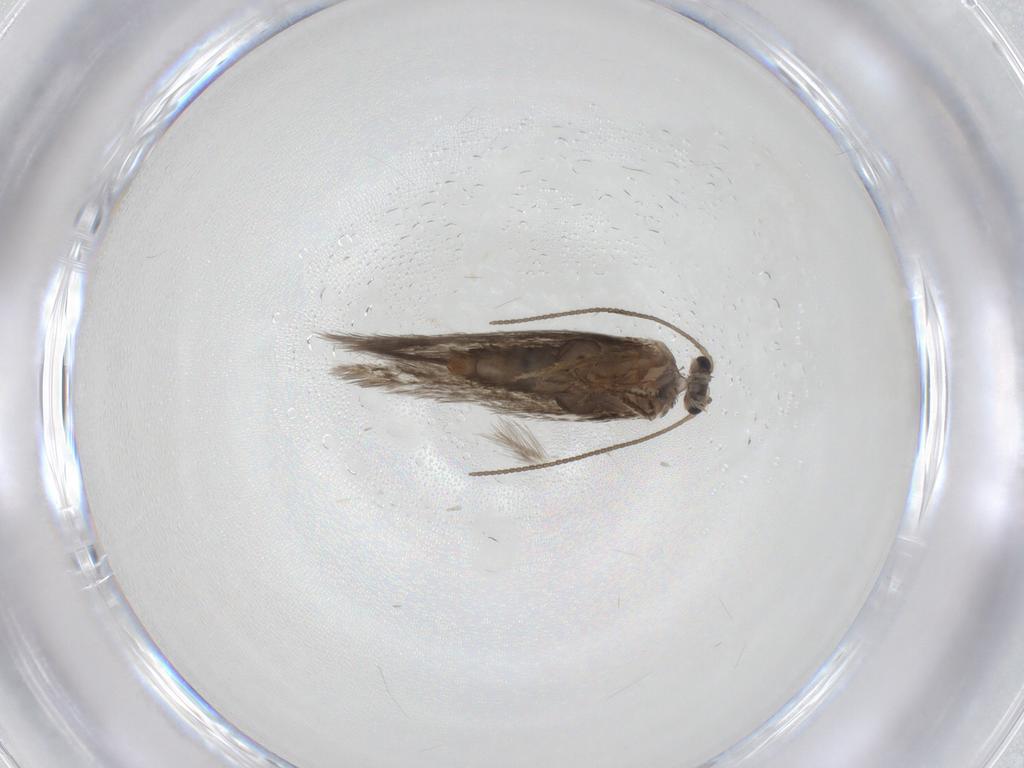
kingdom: Animalia
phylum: Arthropoda
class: Insecta
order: Lepidoptera
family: Nepticulidae
